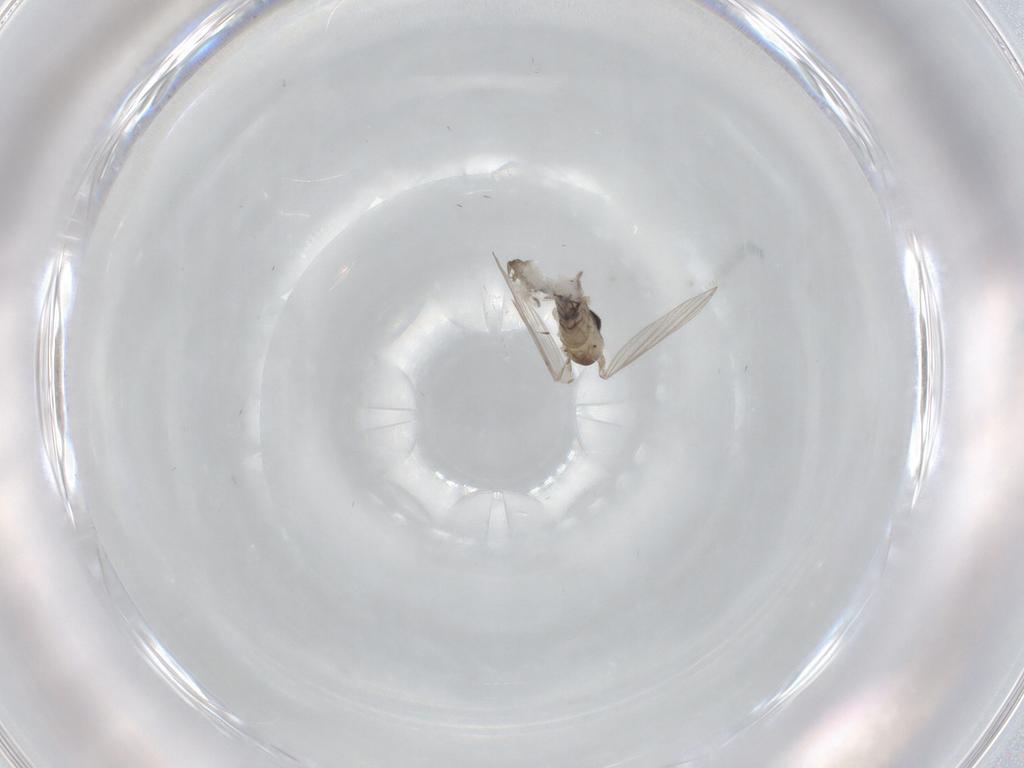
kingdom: Animalia
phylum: Arthropoda
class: Insecta
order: Diptera
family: Psychodidae
